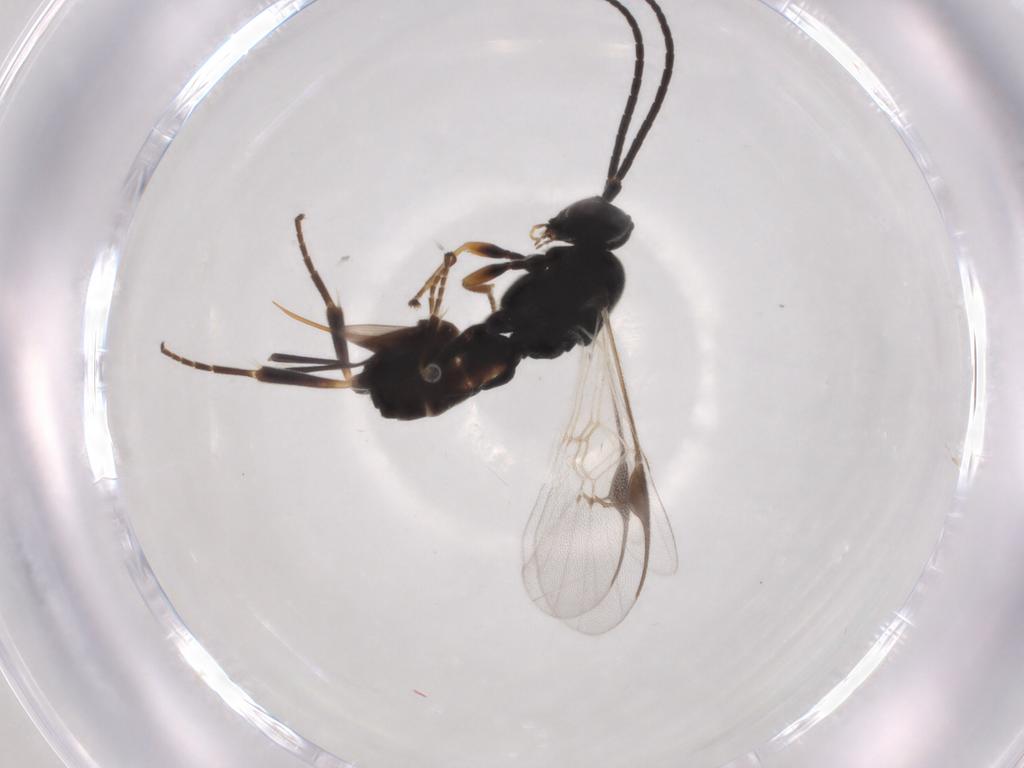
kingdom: Animalia
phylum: Arthropoda
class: Insecta
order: Hymenoptera
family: Braconidae
